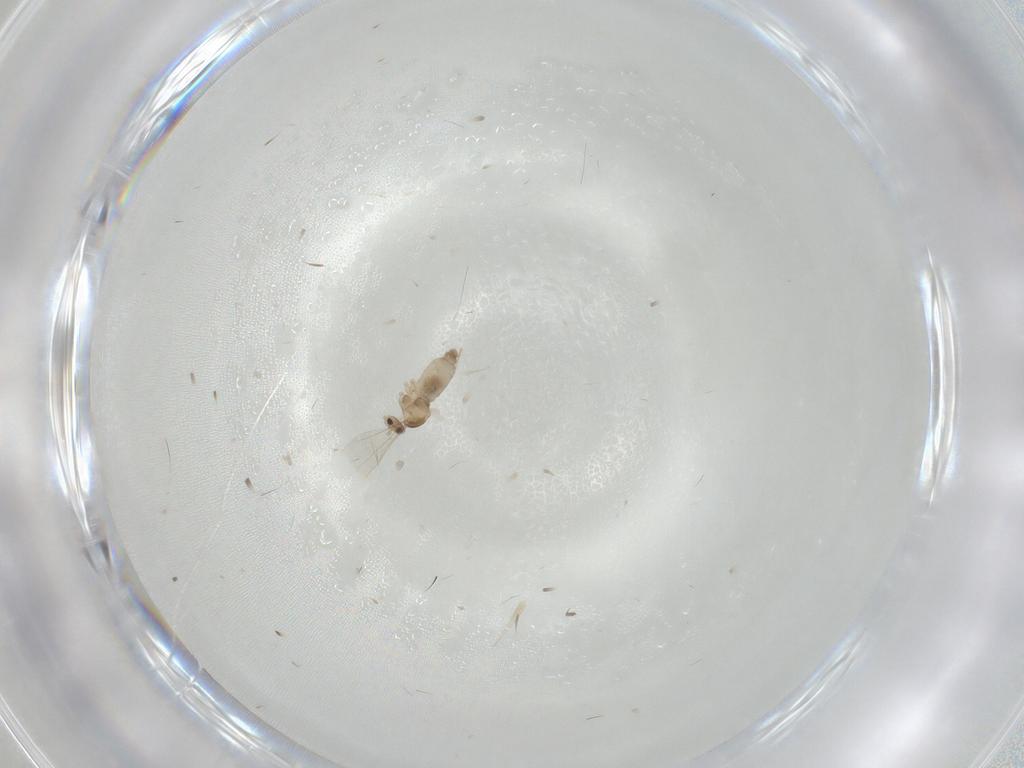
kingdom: Animalia
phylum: Arthropoda
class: Insecta
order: Diptera
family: Cecidomyiidae
